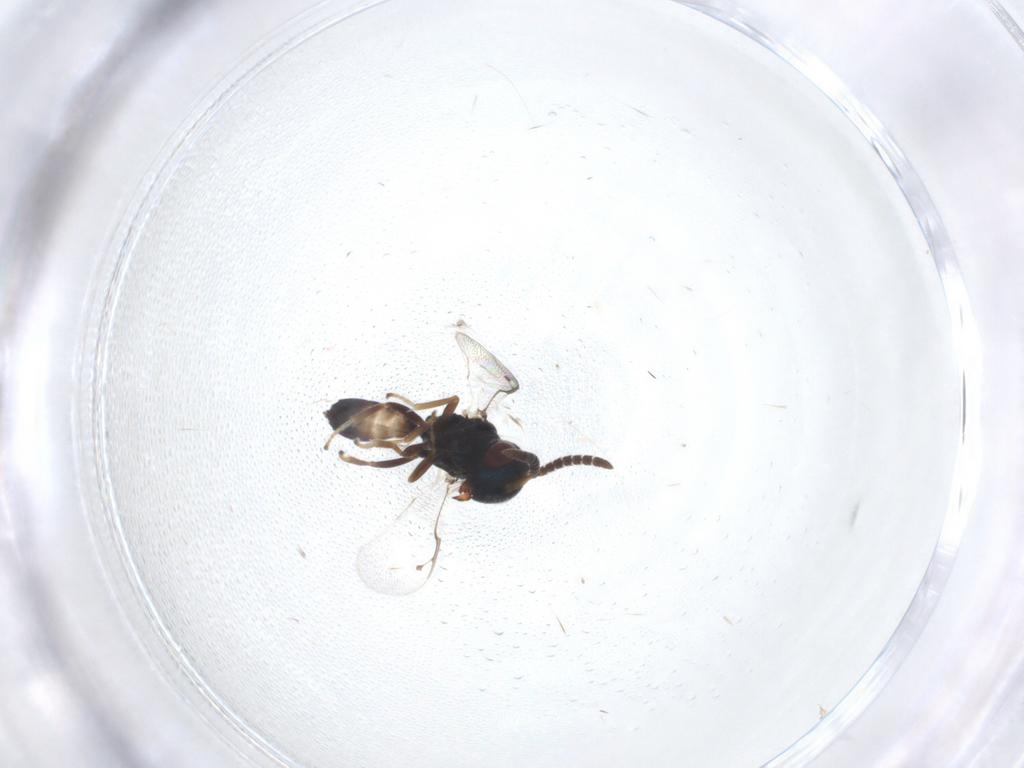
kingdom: Animalia
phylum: Arthropoda
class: Insecta
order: Hymenoptera
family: Pteromalidae
